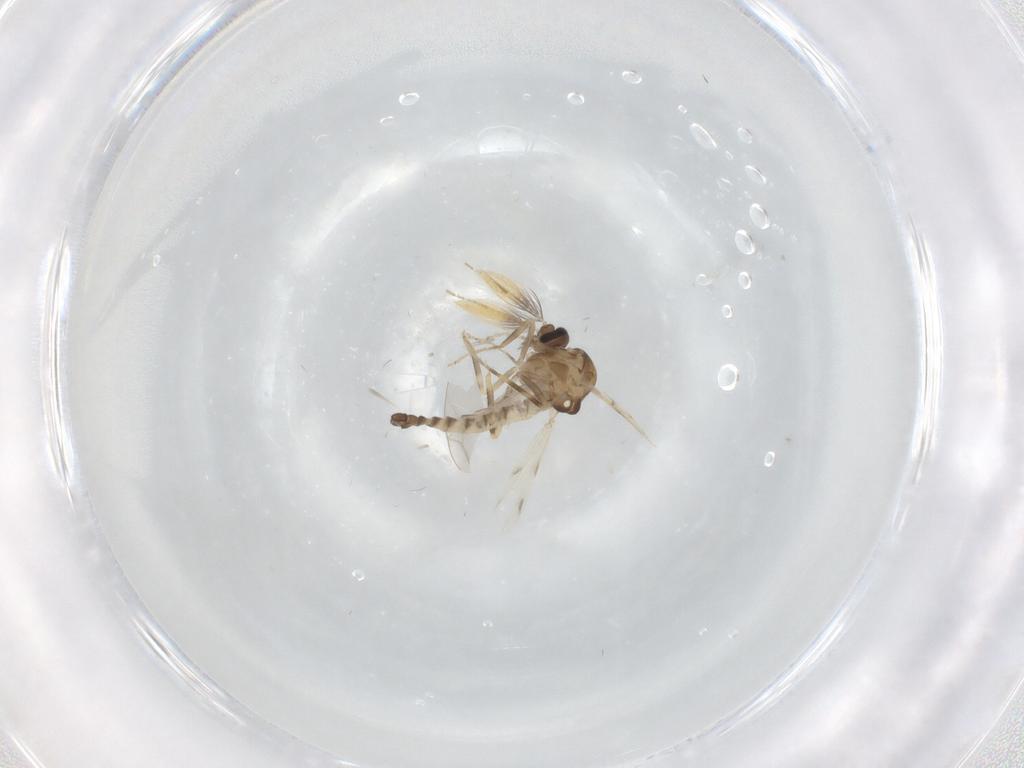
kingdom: Animalia
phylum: Arthropoda
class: Insecta
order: Diptera
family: Ceratopogonidae
